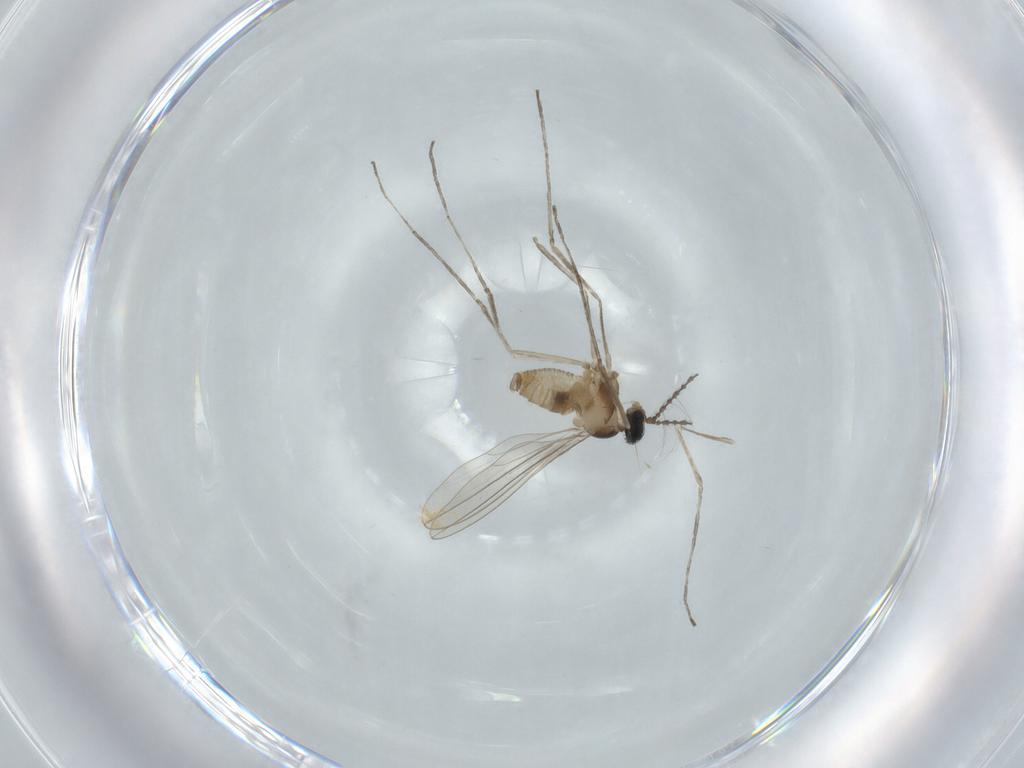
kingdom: Animalia
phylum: Arthropoda
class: Insecta
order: Diptera
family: Cecidomyiidae
